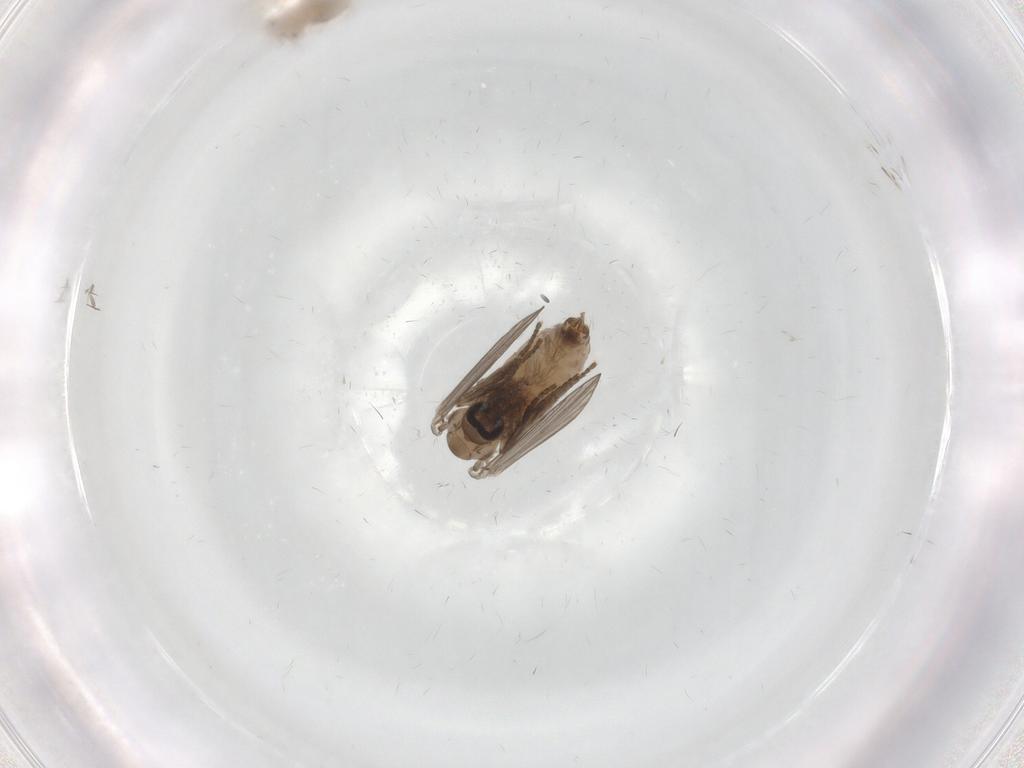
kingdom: Animalia
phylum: Arthropoda
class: Insecta
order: Diptera
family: Psychodidae
